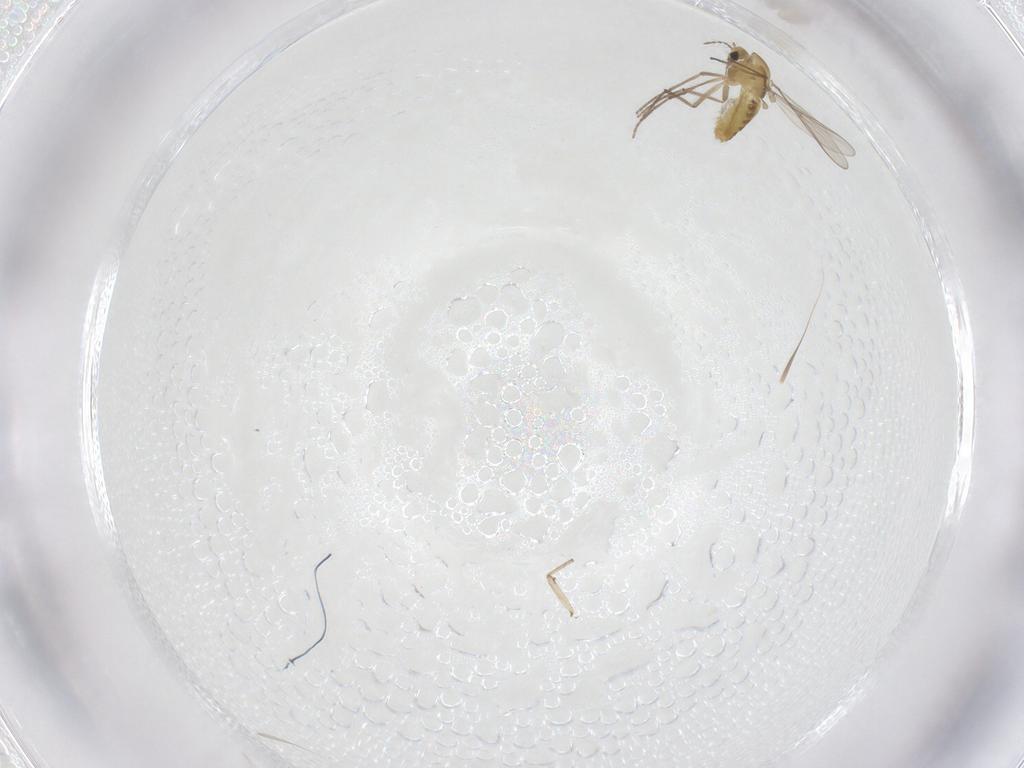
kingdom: Animalia
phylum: Arthropoda
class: Insecta
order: Diptera
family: Chironomidae
